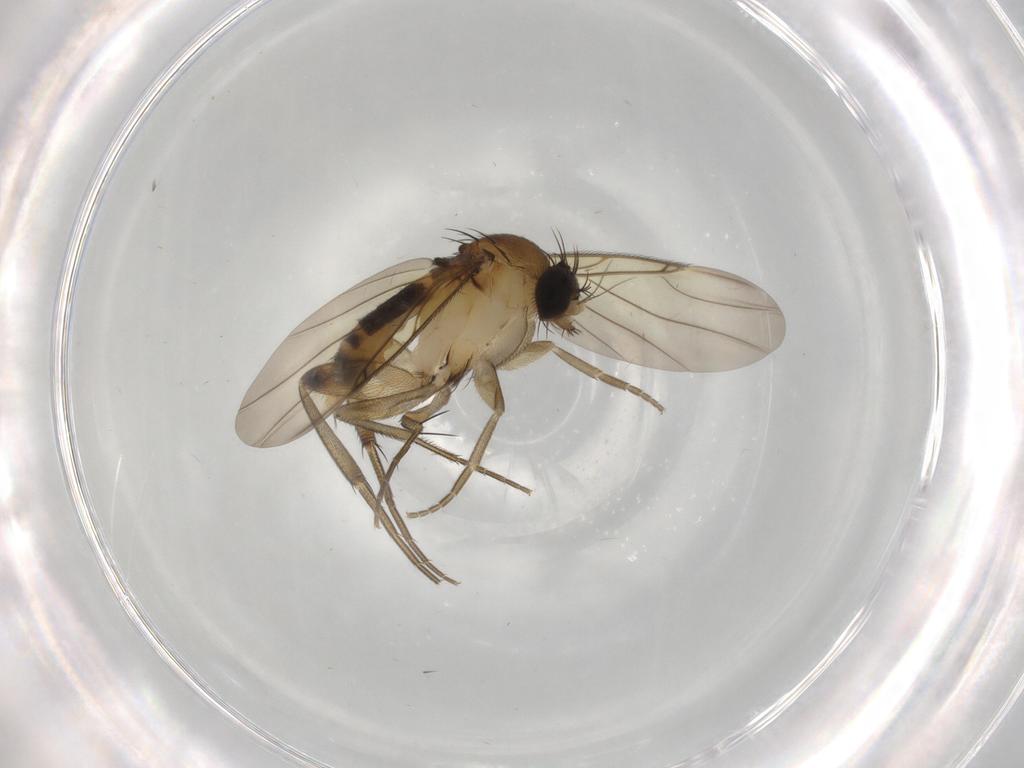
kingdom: Animalia
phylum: Arthropoda
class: Insecta
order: Diptera
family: Phoridae
